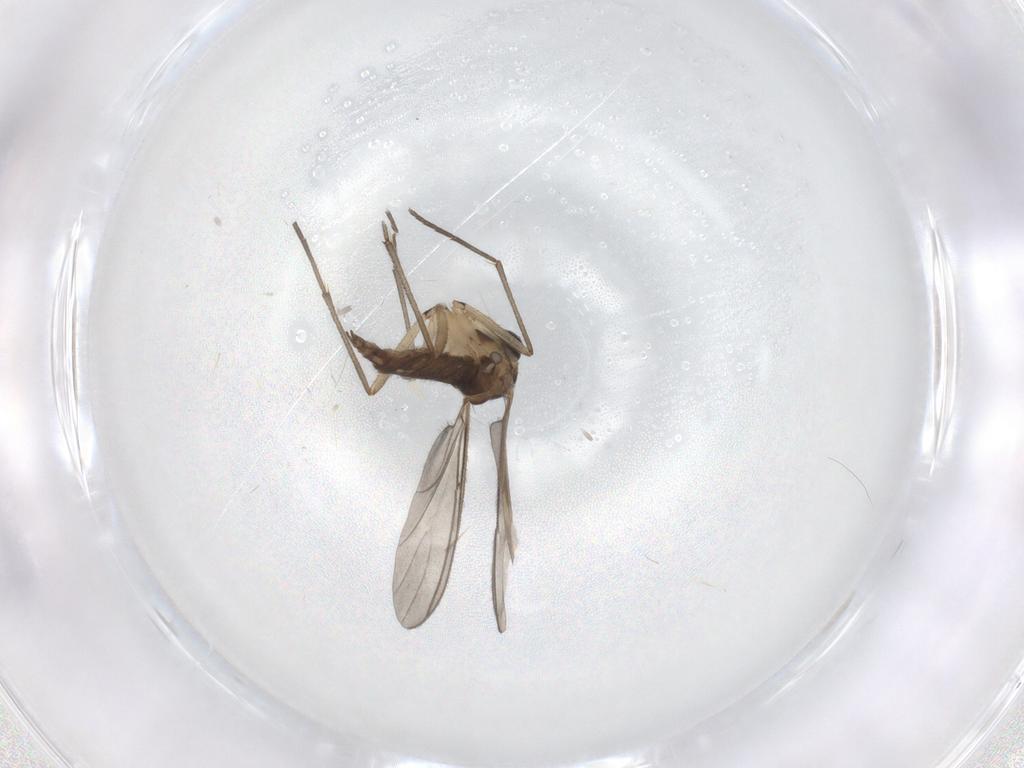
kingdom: Animalia
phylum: Arthropoda
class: Insecta
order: Diptera
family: Sciaridae
